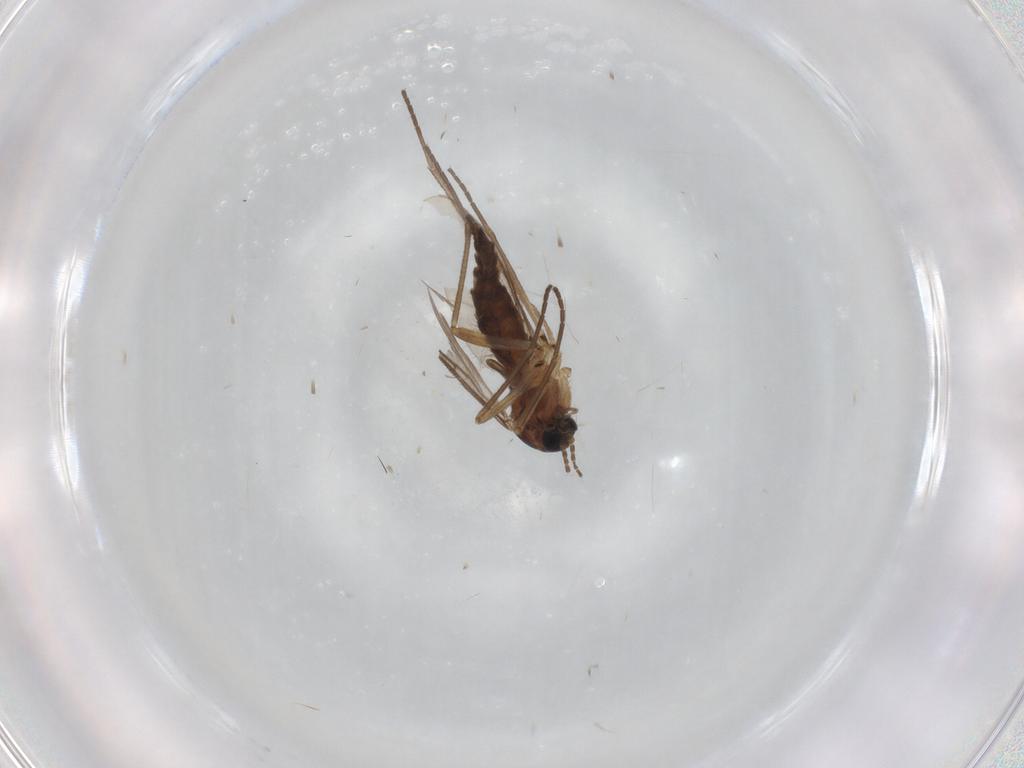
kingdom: Animalia
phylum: Arthropoda
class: Insecta
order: Diptera
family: Sciaridae
